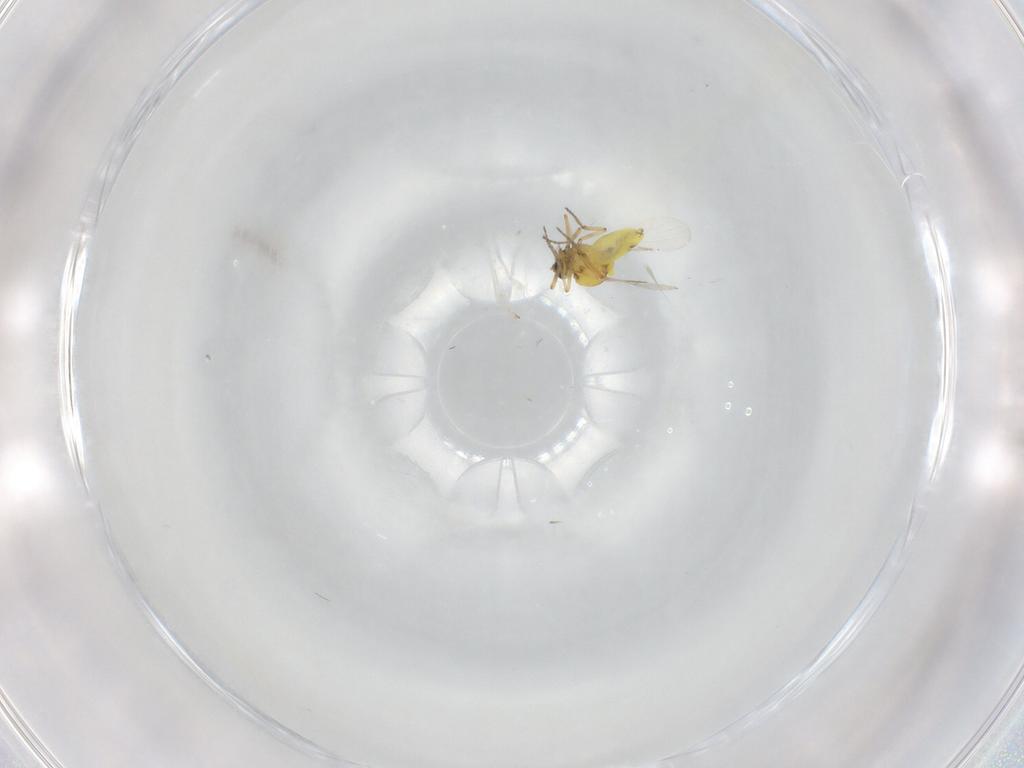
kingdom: Animalia
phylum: Arthropoda
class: Insecta
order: Diptera
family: Ceratopogonidae
